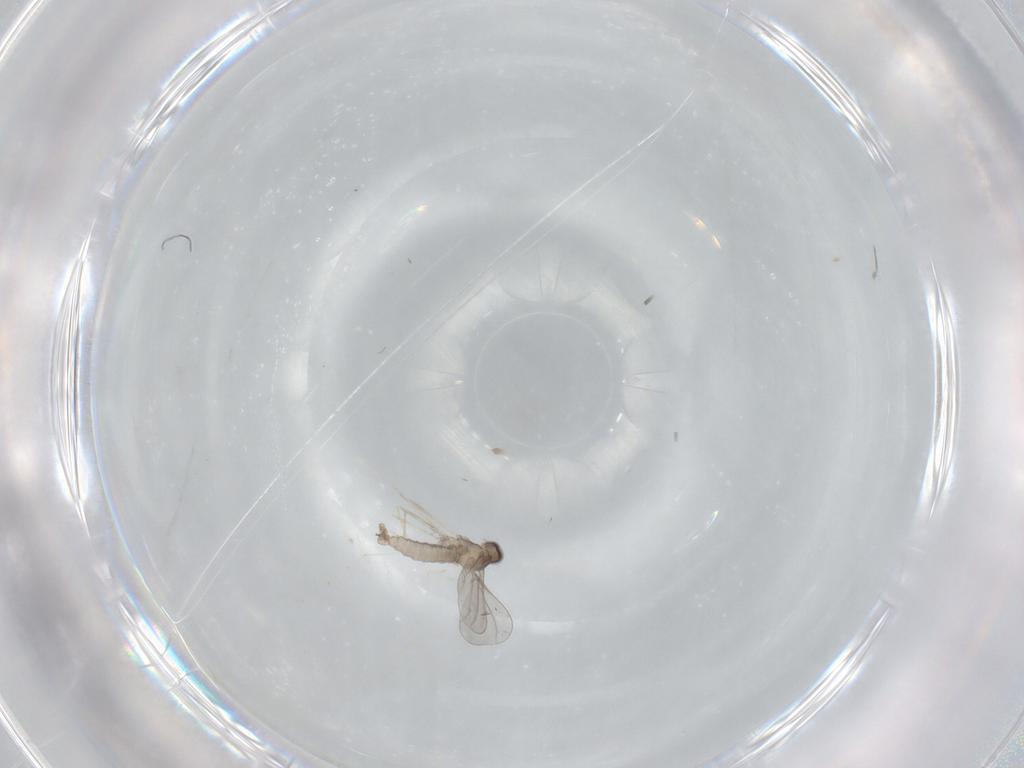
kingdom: Animalia
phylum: Arthropoda
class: Insecta
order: Diptera
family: Cecidomyiidae
